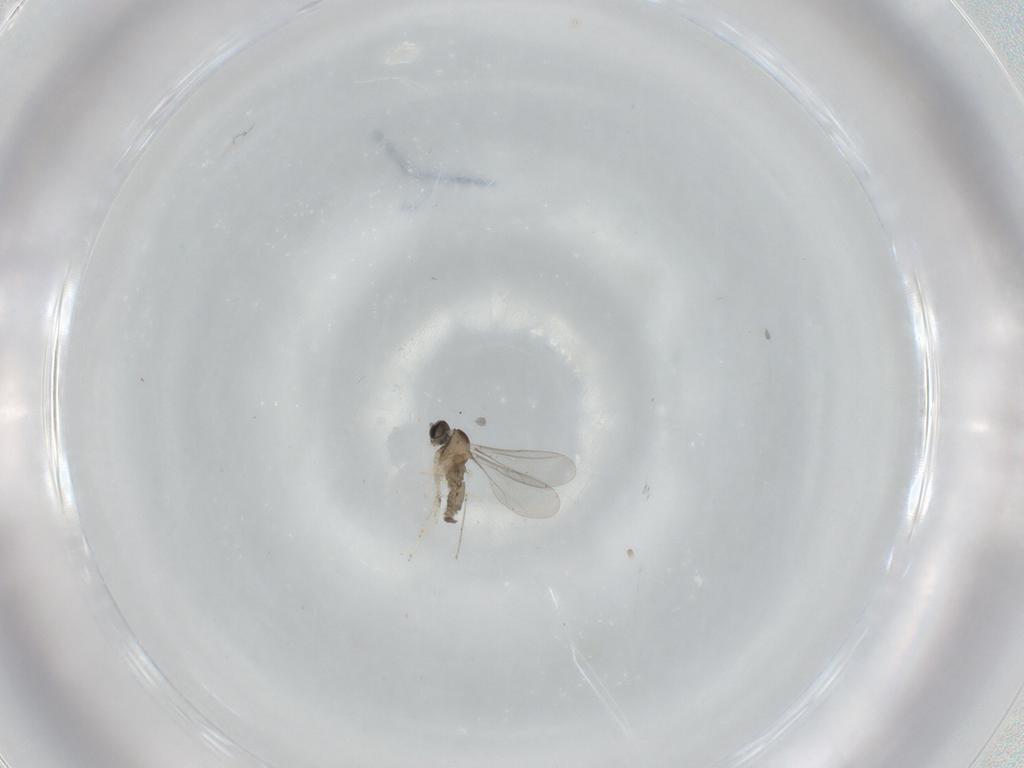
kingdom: Animalia
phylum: Arthropoda
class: Insecta
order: Diptera
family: Cecidomyiidae
